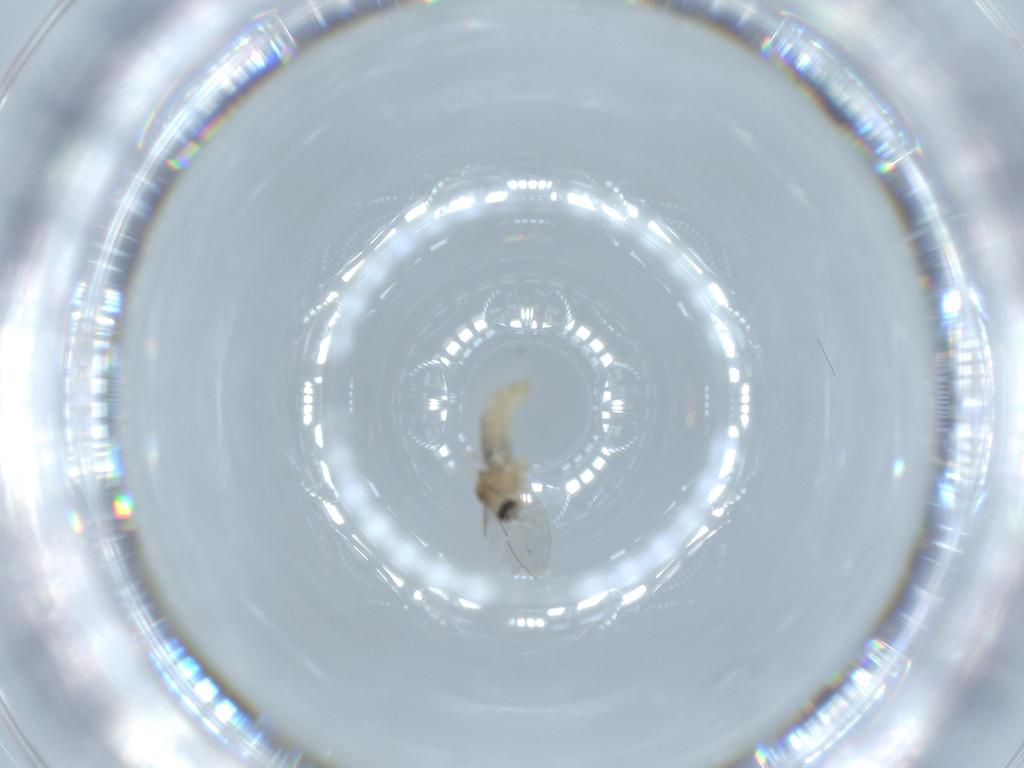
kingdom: Animalia
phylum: Arthropoda
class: Insecta
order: Diptera
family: Cecidomyiidae
